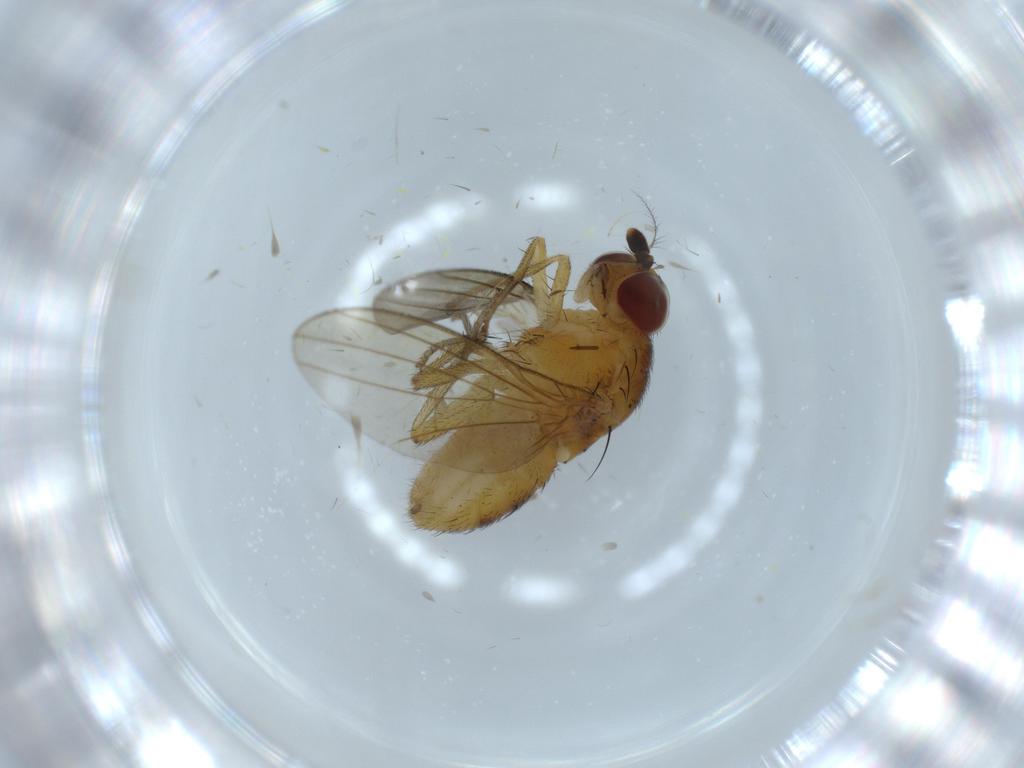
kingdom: Animalia
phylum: Arthropoda
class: Insecta
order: Diptera
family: Lauxaniidae
